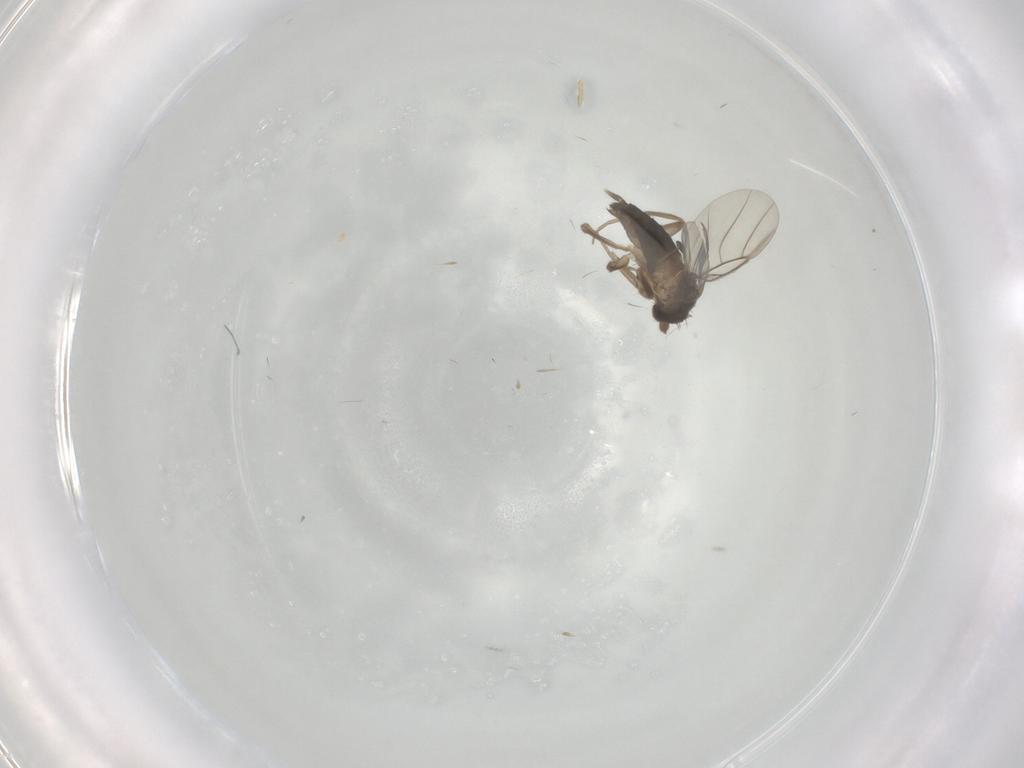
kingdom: Animalia
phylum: Arthropoda
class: Insecta
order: Diptera
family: Phoridae
